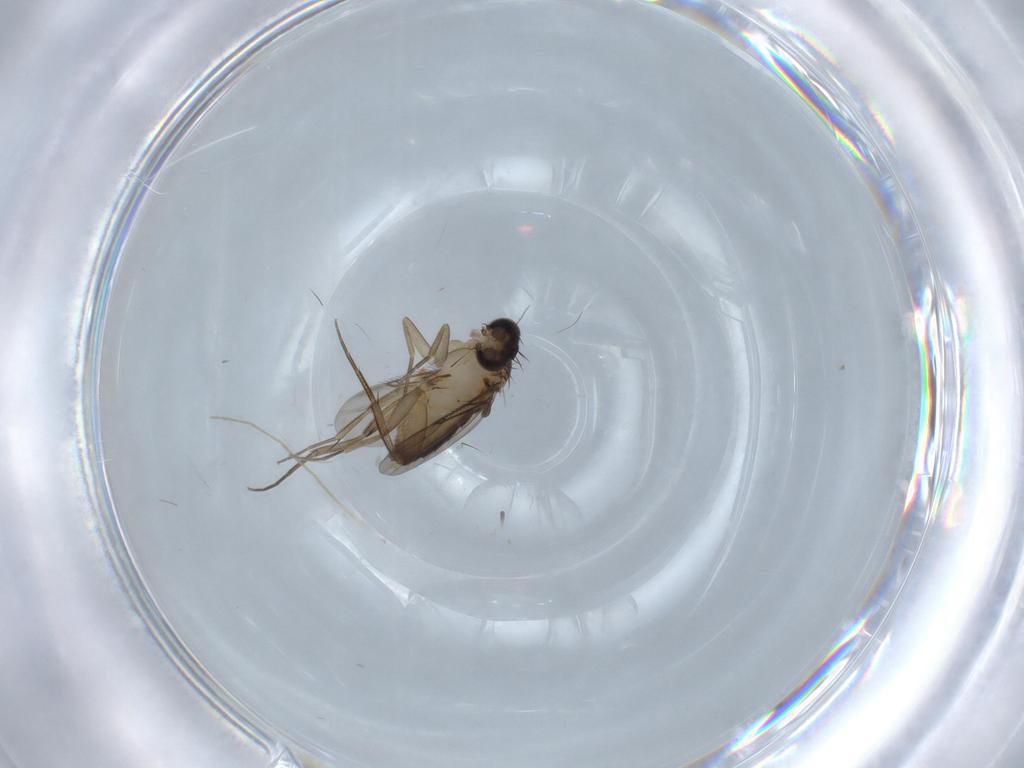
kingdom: Animalia
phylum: Arthropoda
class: Insecta
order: Diptera
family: Phoridae
